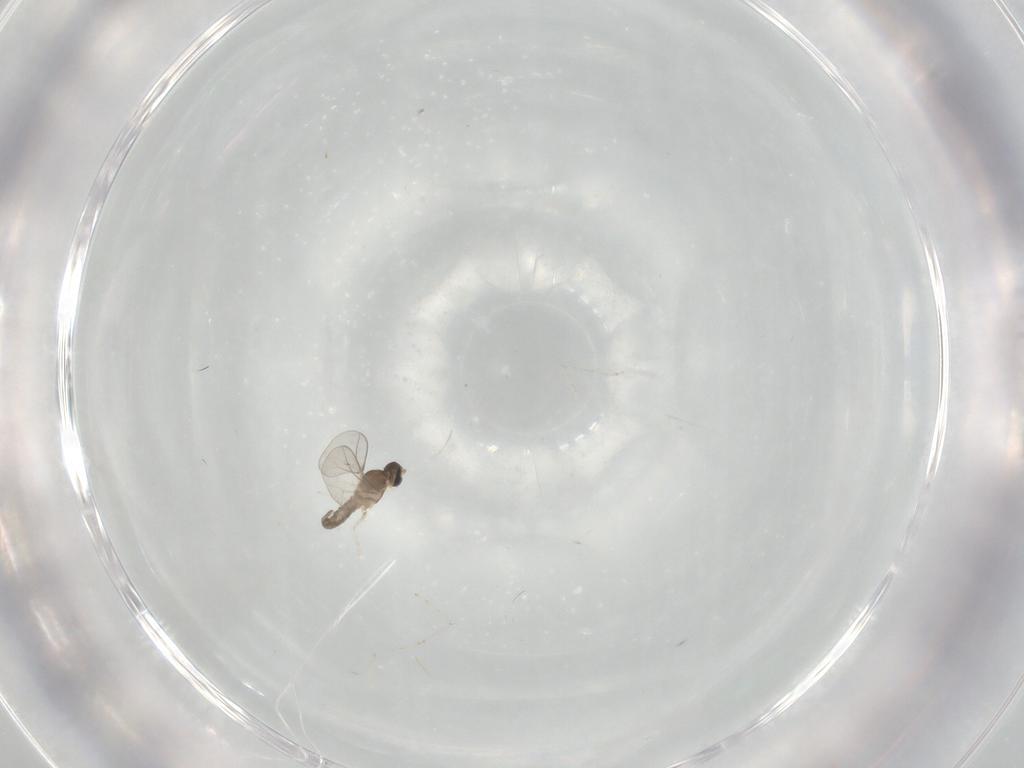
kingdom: Animalia
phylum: Arthropoda
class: Insecta
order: Diptera
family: Cecidomyiidae
